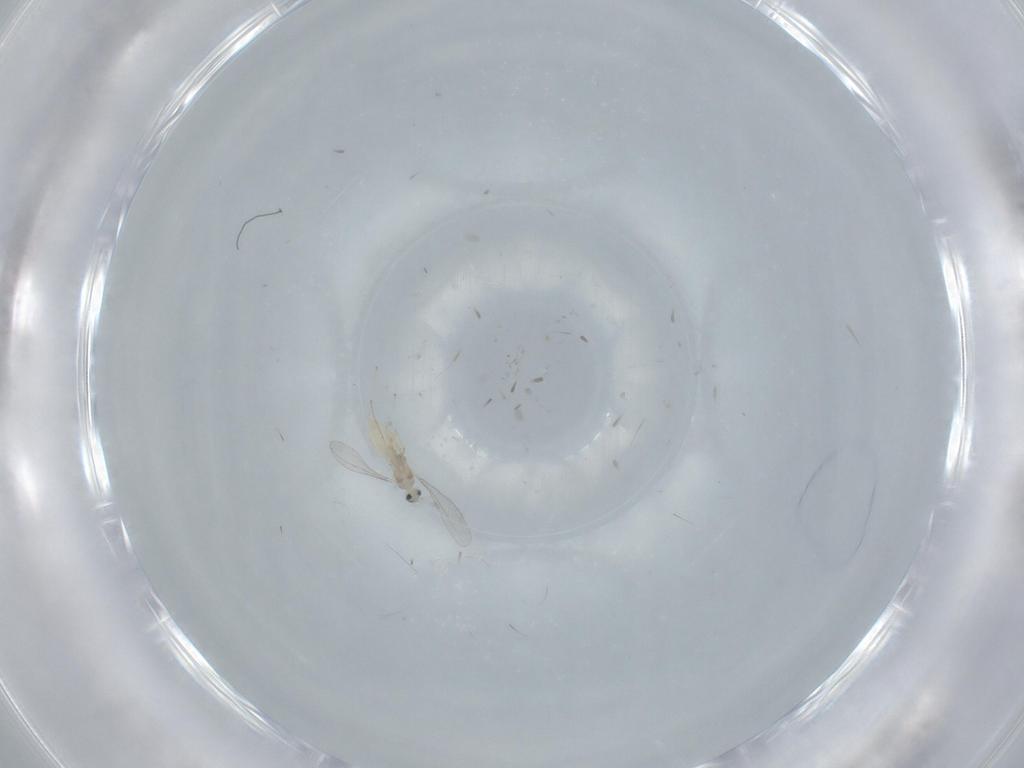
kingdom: Animalia
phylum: Arthropoda
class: Insecta
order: Diptera
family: Cecidomyiidae
